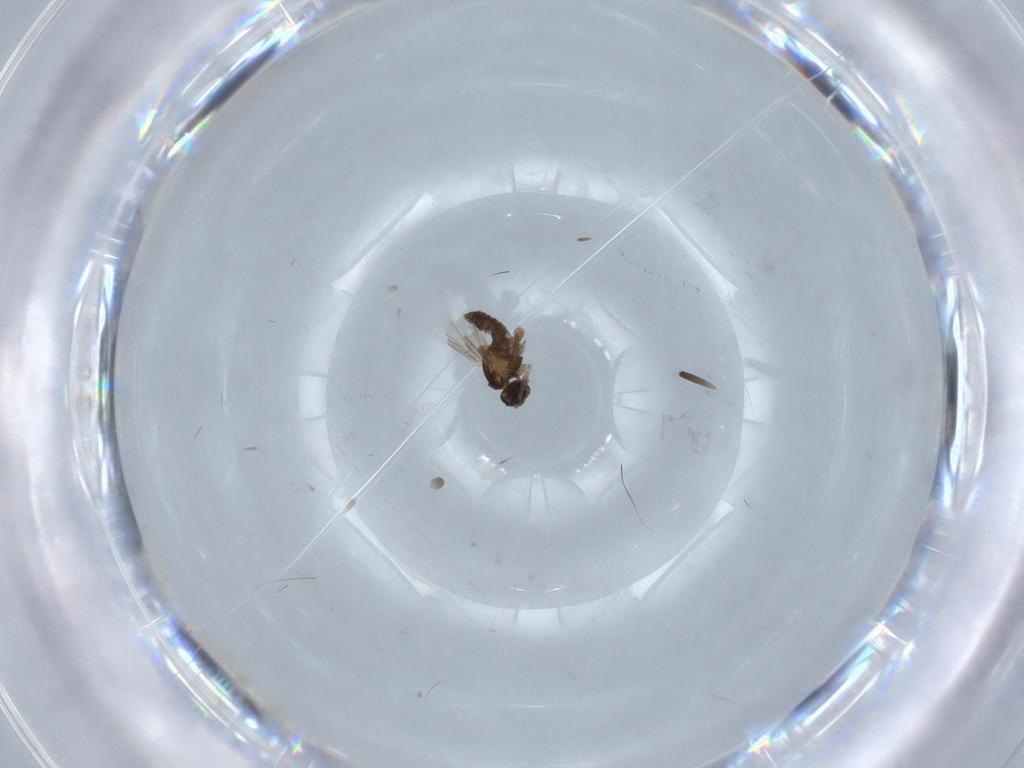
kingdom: Animalia
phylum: Arthropoda
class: Insecta
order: Diptera
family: Cecidomyiidae
